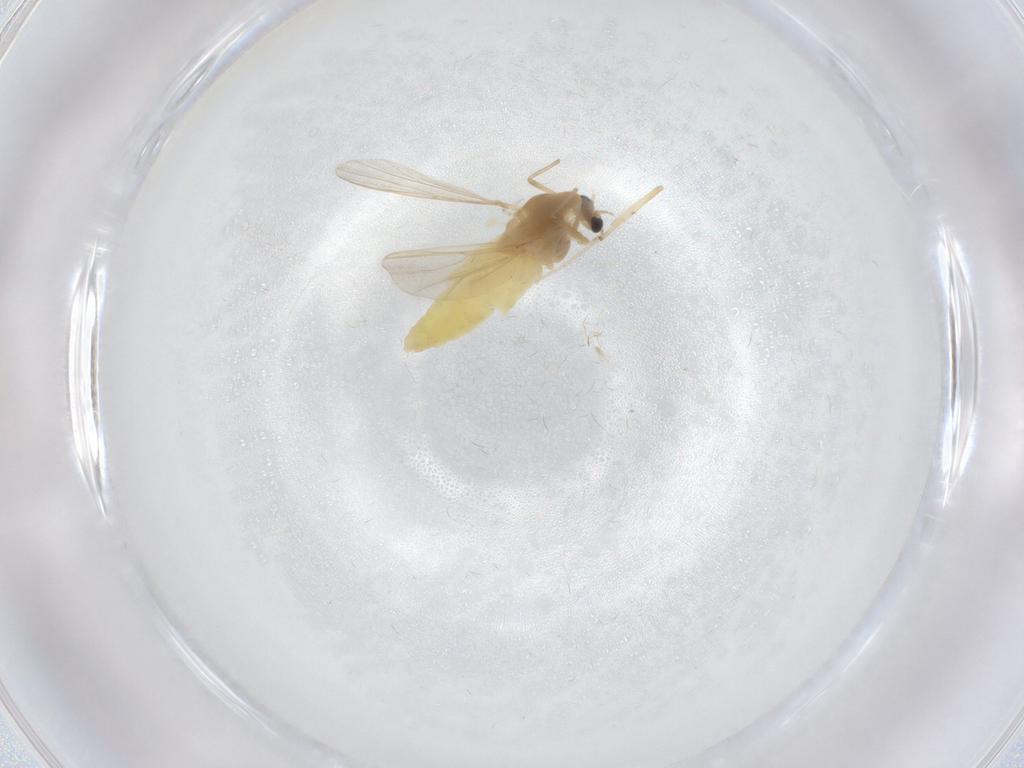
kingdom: Animalia
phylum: Arthropoda
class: Insecta
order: Diptera
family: Chironomidae
